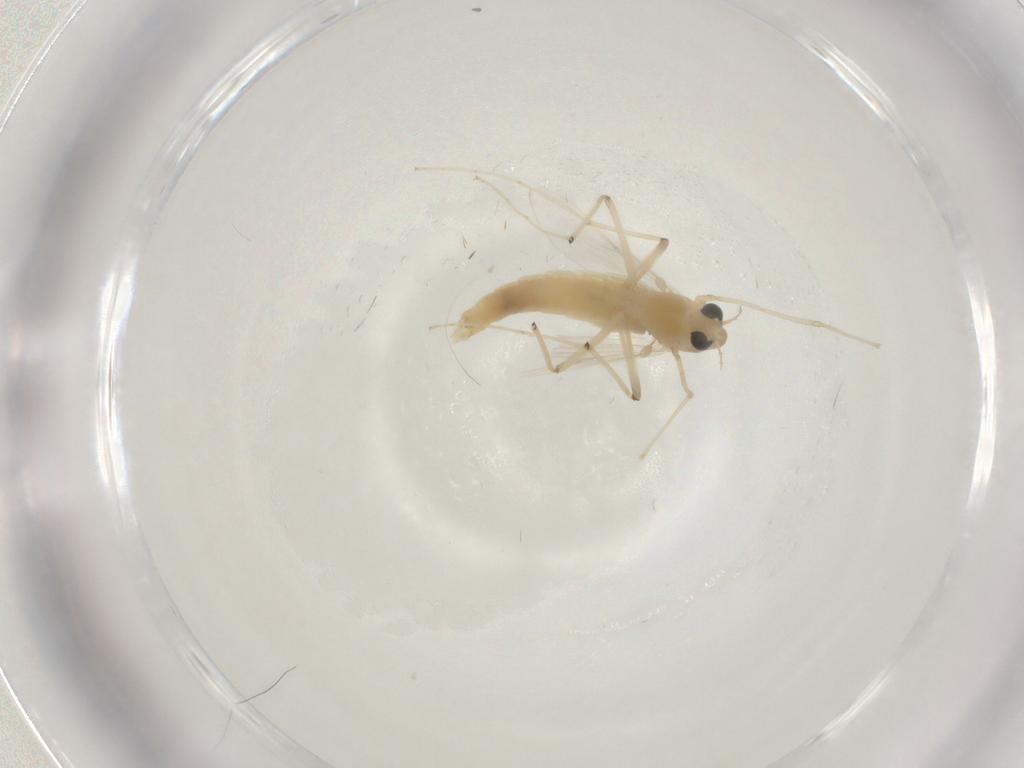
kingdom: Animalia
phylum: Arthropoda
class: Insecta
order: Diptera
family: Chironomidae
